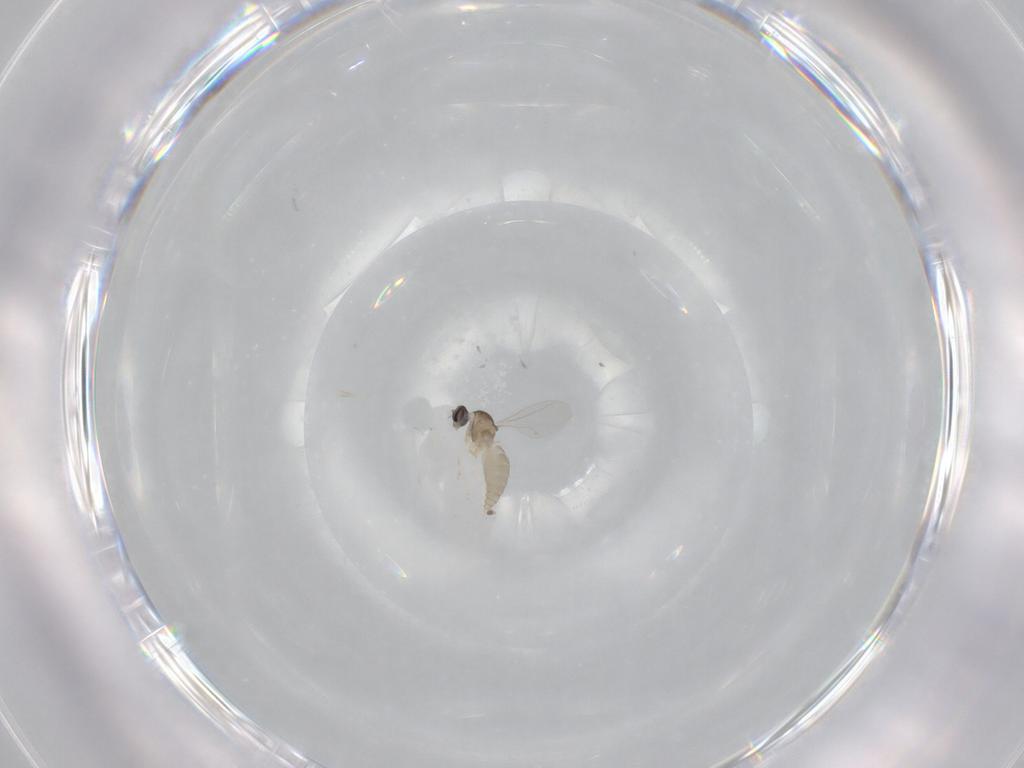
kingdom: Animalia
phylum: Arthropoda
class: Insecta
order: Diptera
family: Cecidomyiidae
